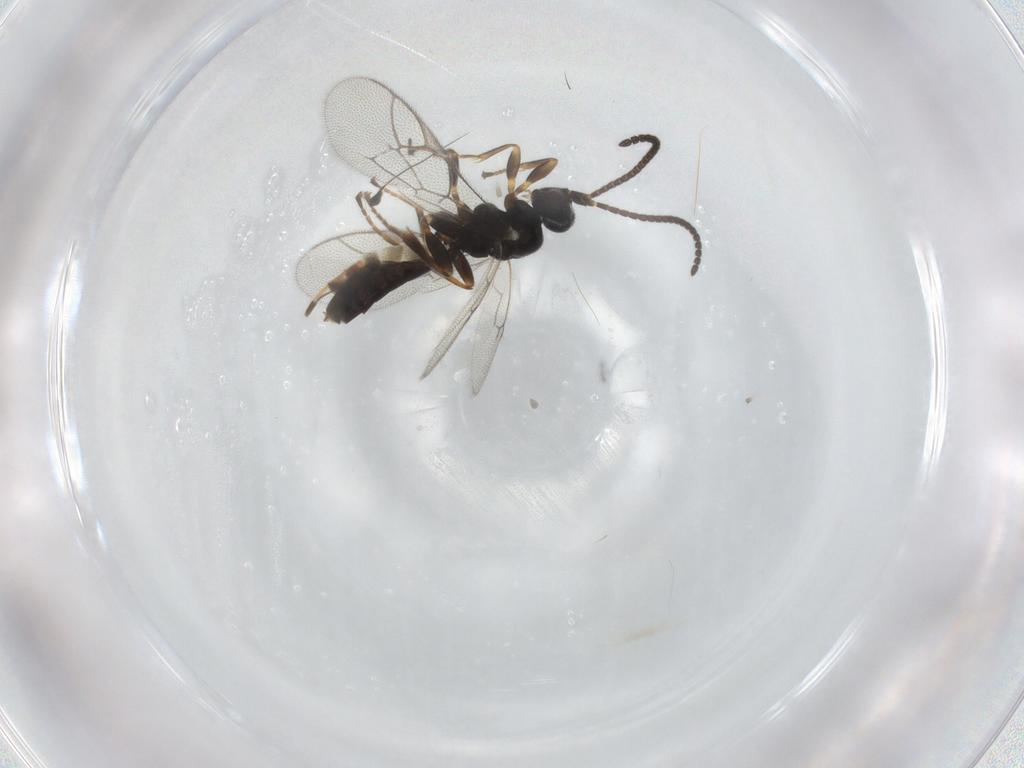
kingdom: Animalia
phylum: Arthropoda
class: Insecta
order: Hymenoptera
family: Ichneumonidae
